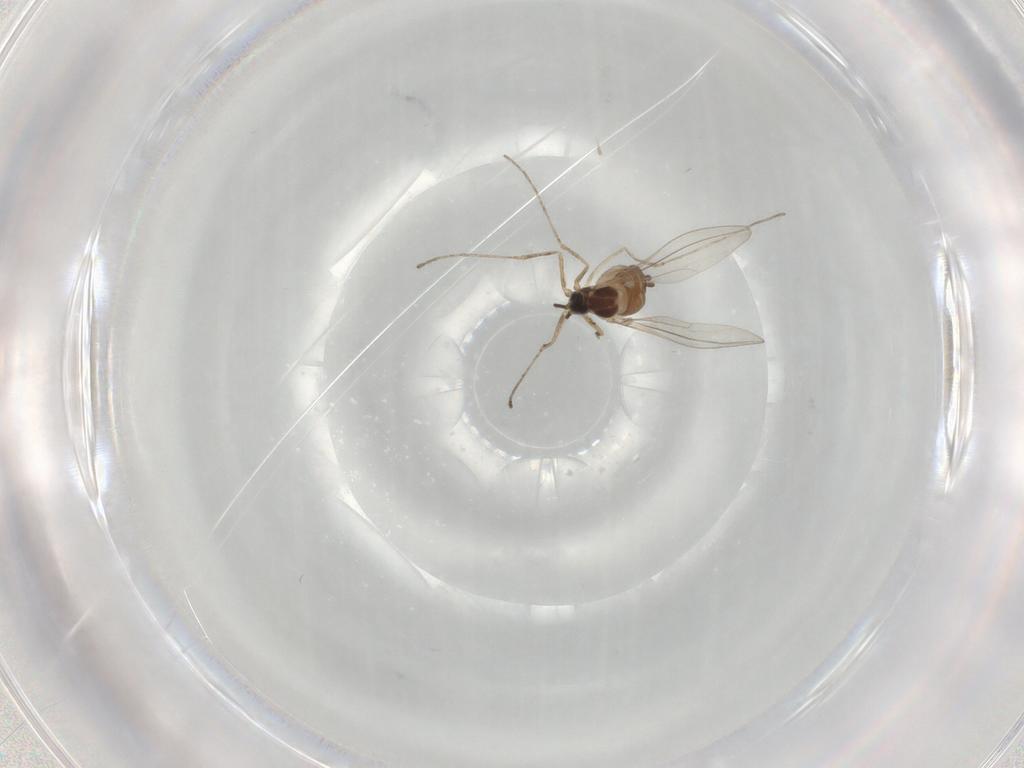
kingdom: Animalia
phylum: Arthropoda
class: Insecta
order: Diptera
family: Cecidomyiidae
